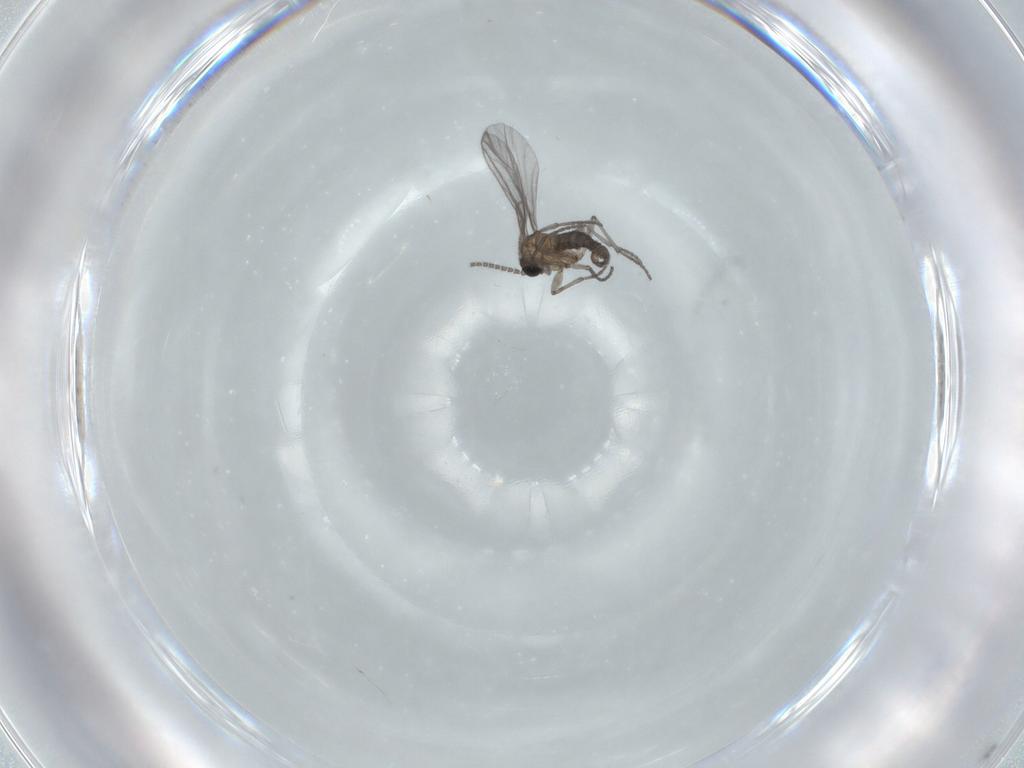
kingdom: Animalia
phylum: Arthropoda
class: Insecta
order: Diptera
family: Sciaridae
